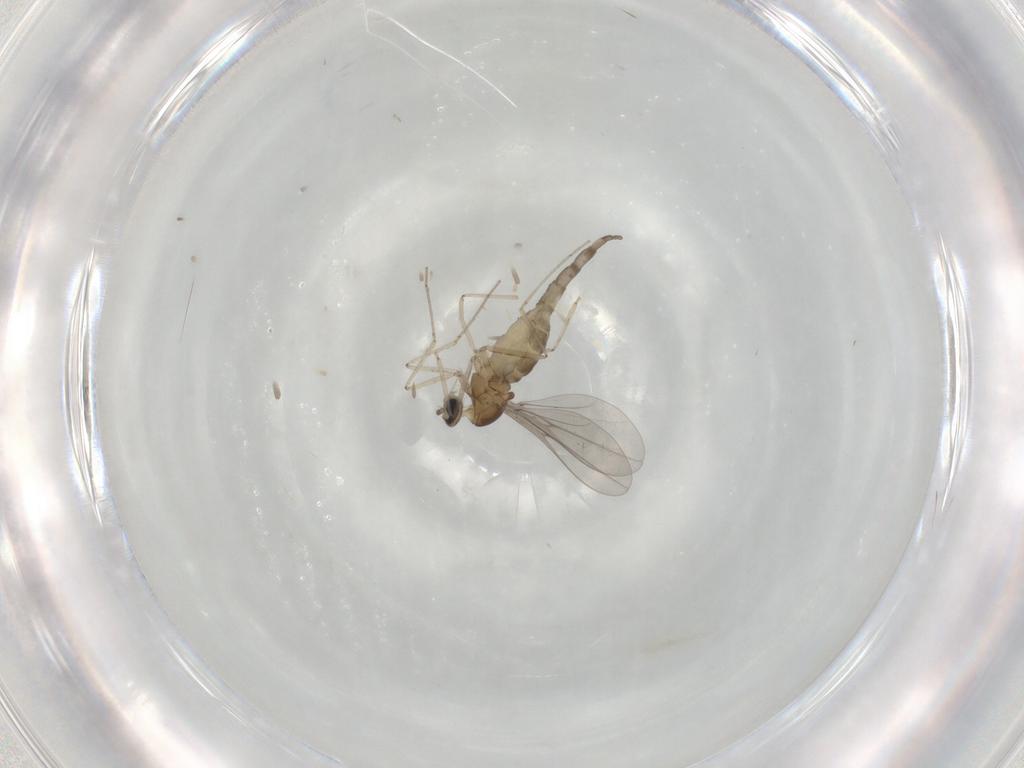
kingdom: Animalia
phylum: Arthropoda
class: Insecta
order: Diptera
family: Cecidomyiidae
